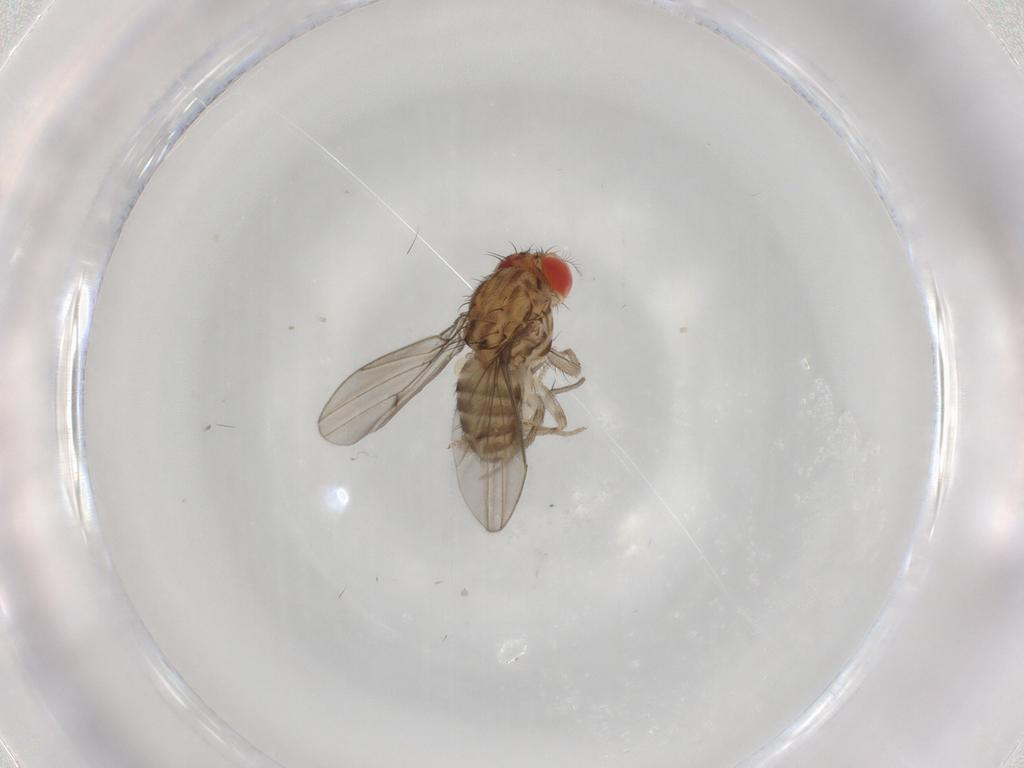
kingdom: Animalia
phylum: Arthropoda
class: Insecta
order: Diptera
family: Drosophilidae
